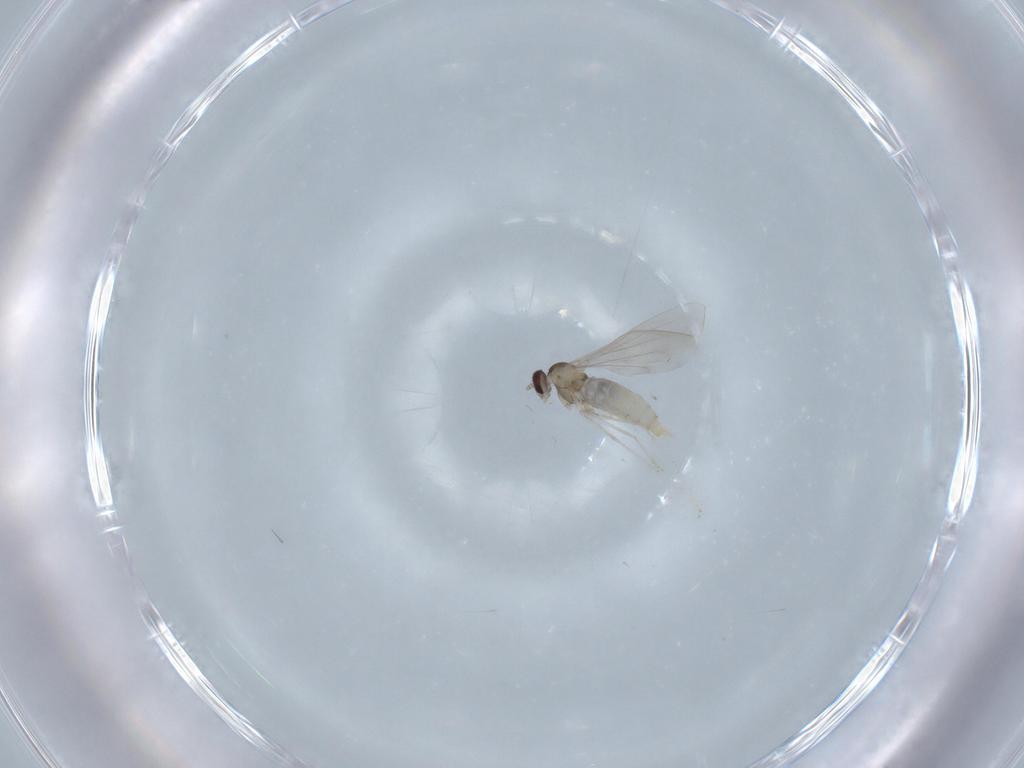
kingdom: Animalia
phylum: Arthropoda
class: Insecta
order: Diptera
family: Cecidomyiidae
